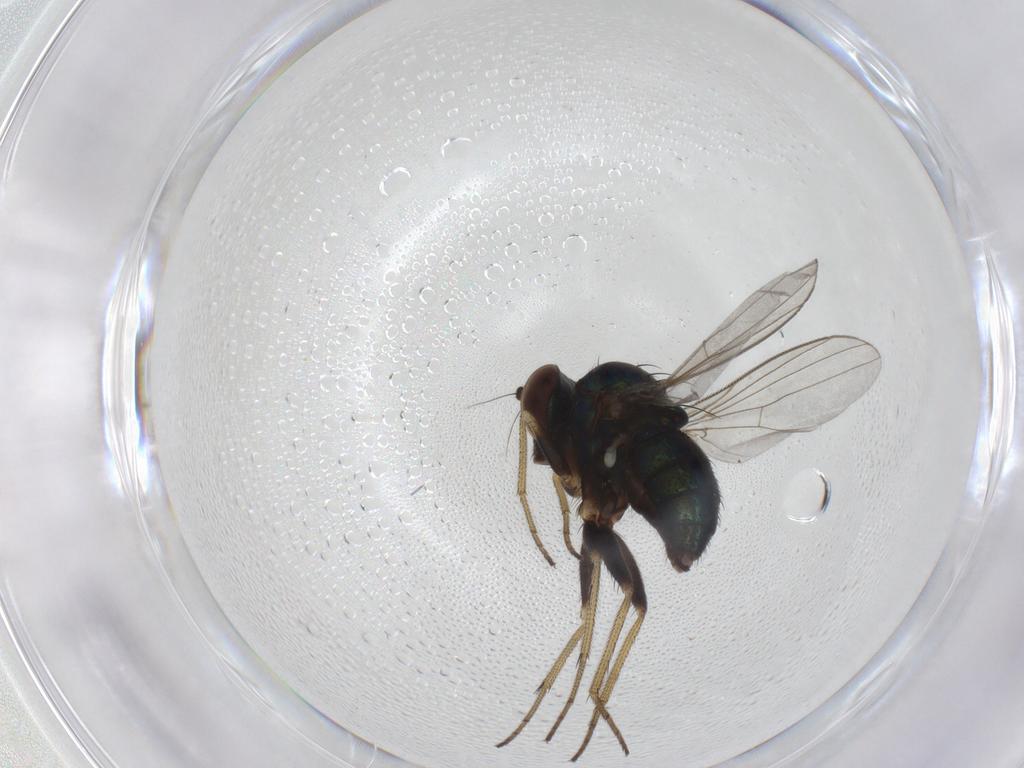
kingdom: Animalia
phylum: Arthropoda
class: Insecta
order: Diptera
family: Dolichopodidae
